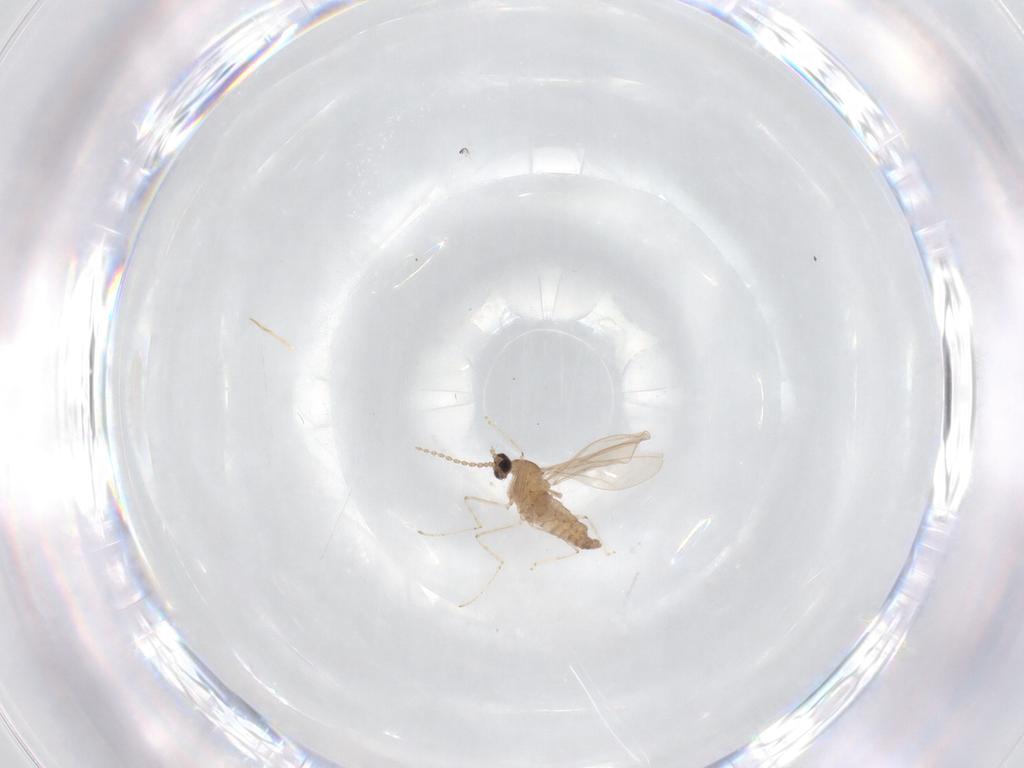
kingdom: Animalia
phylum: Arthropoda
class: Insecta
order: Diptera
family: Cecidomyiidae
